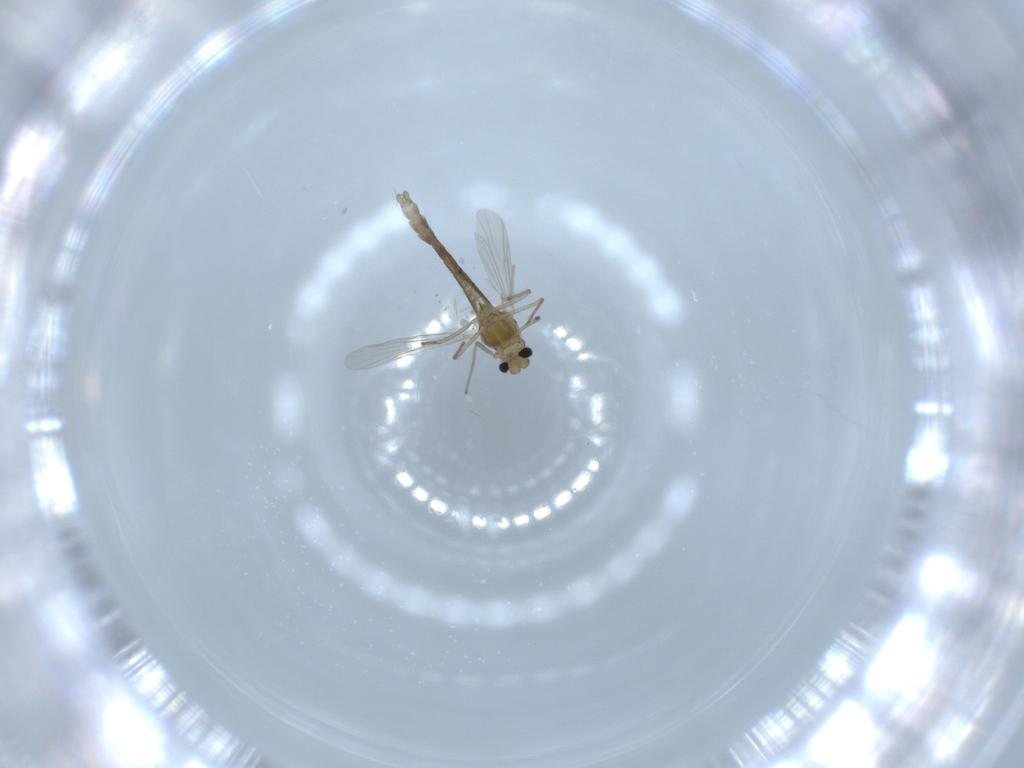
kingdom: Animalia
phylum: Arthropoda
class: Insecta
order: Diptera
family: Chironomidae
